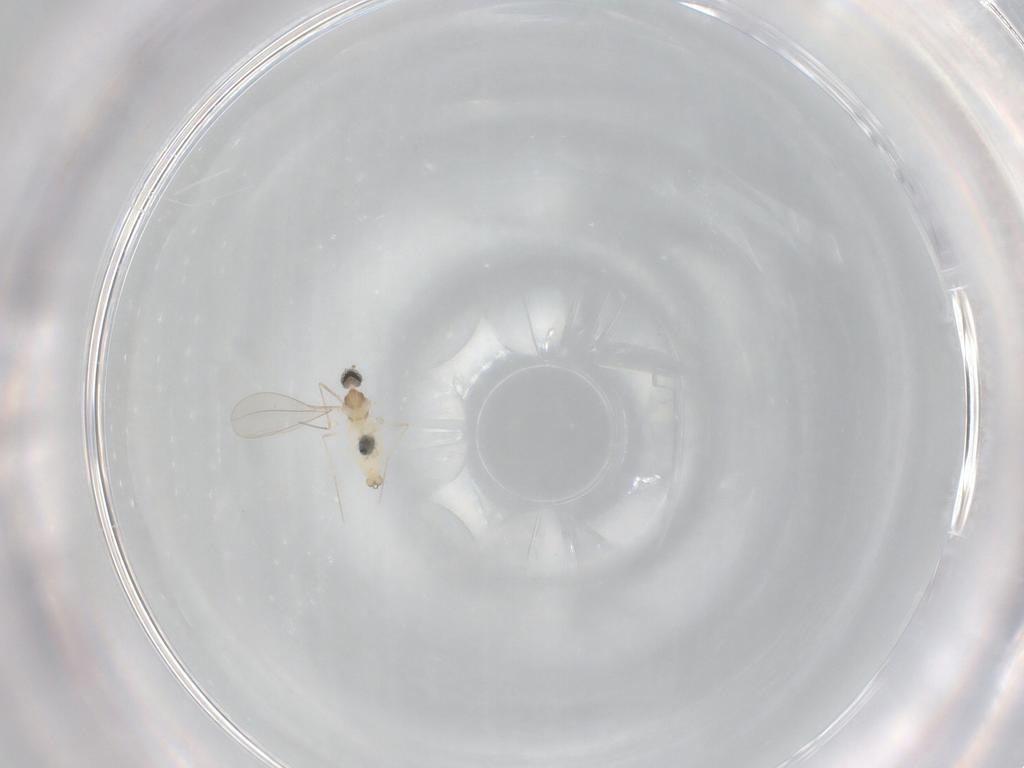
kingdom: Animalia
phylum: Arthropoda
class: Insecta
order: Diptera
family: Cecidomyiidae
